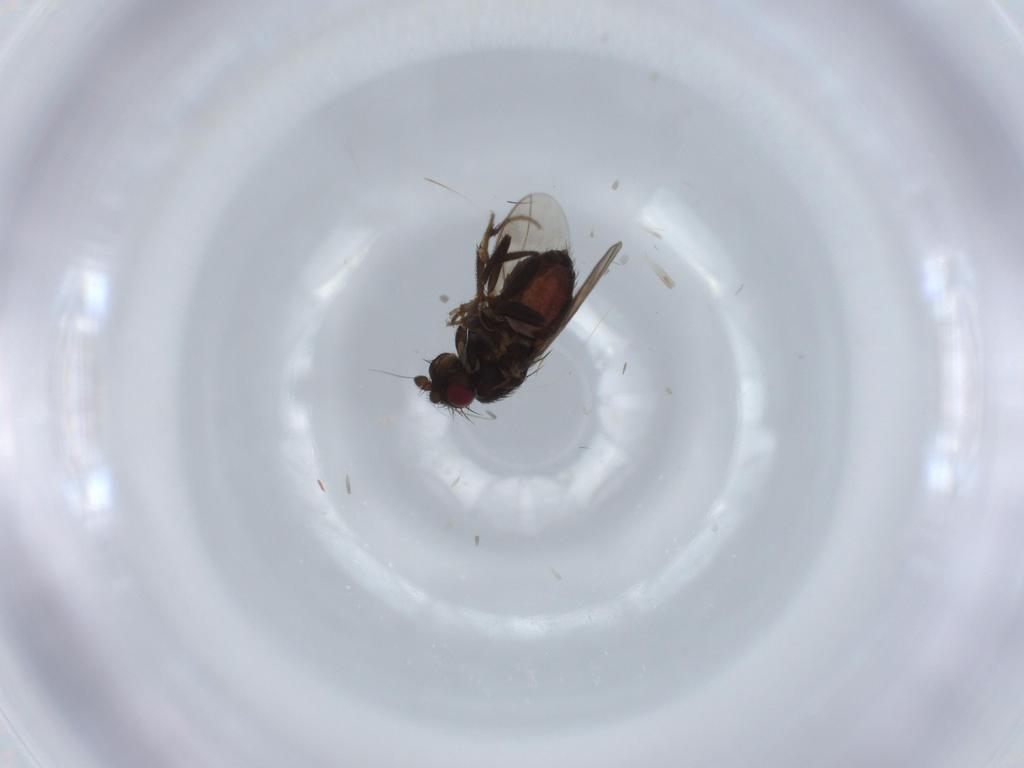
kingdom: Animalia
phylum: Arthropoda
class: Insecta
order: Diptera
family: Sphaeroceridae
